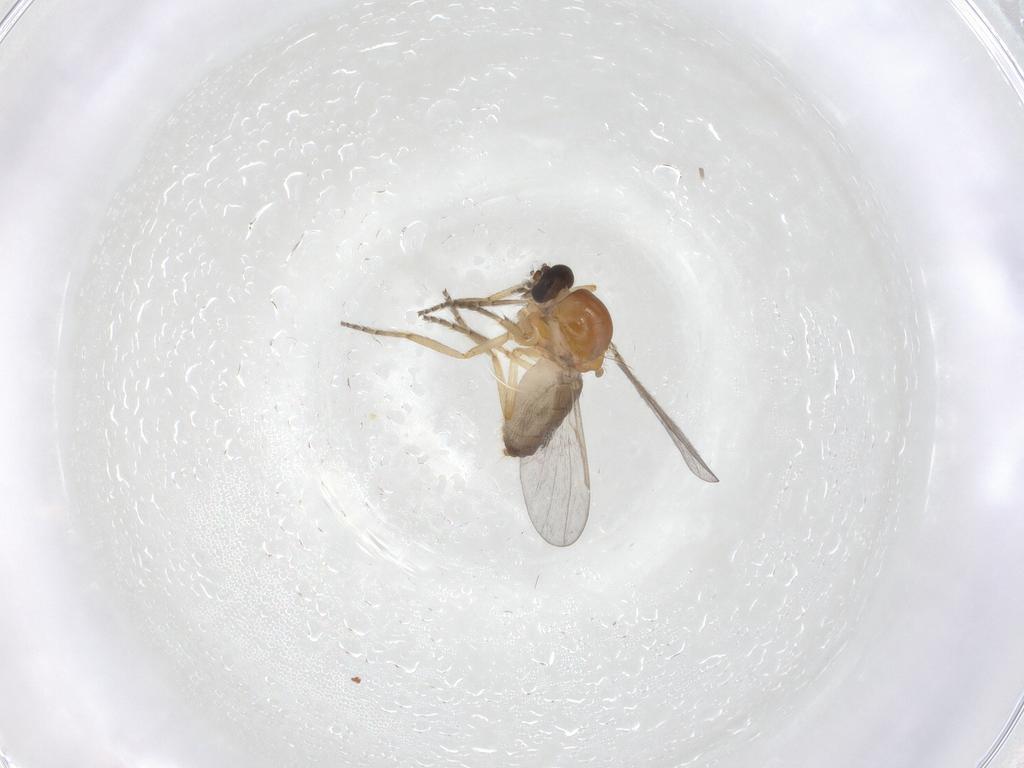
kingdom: Animalia
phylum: Arthropoda
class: Insecta
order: Diptera
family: Ceratopogonidae
